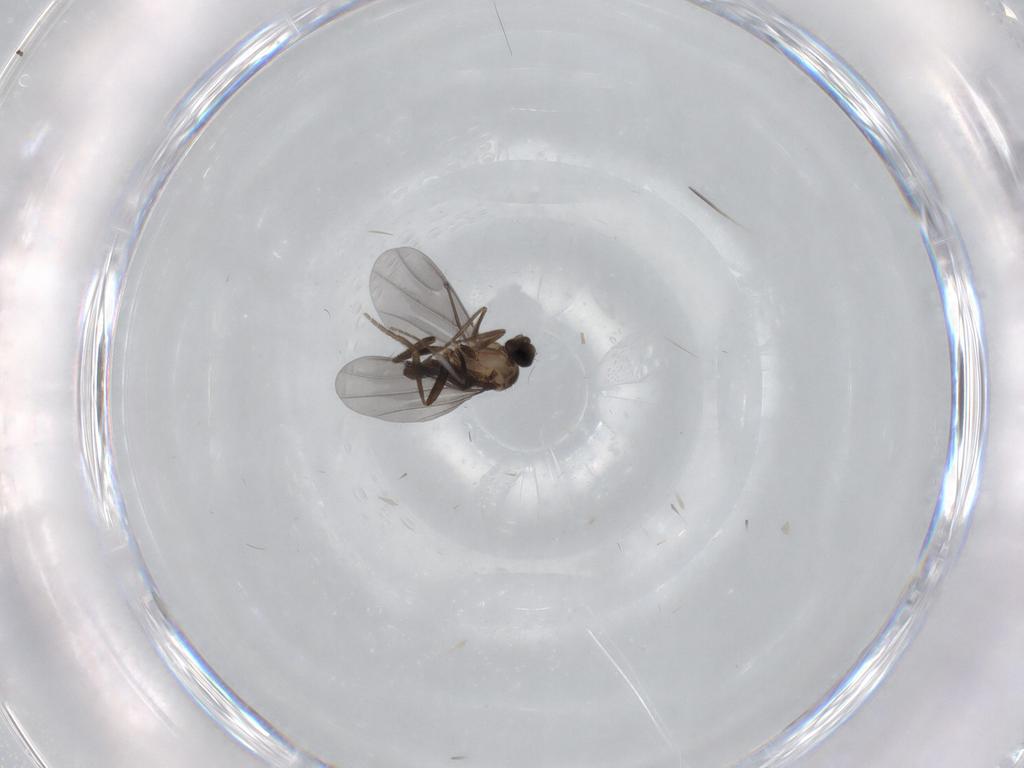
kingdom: Animalia
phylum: Arthropoda
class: Insecta
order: Diptera
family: Phoridae
